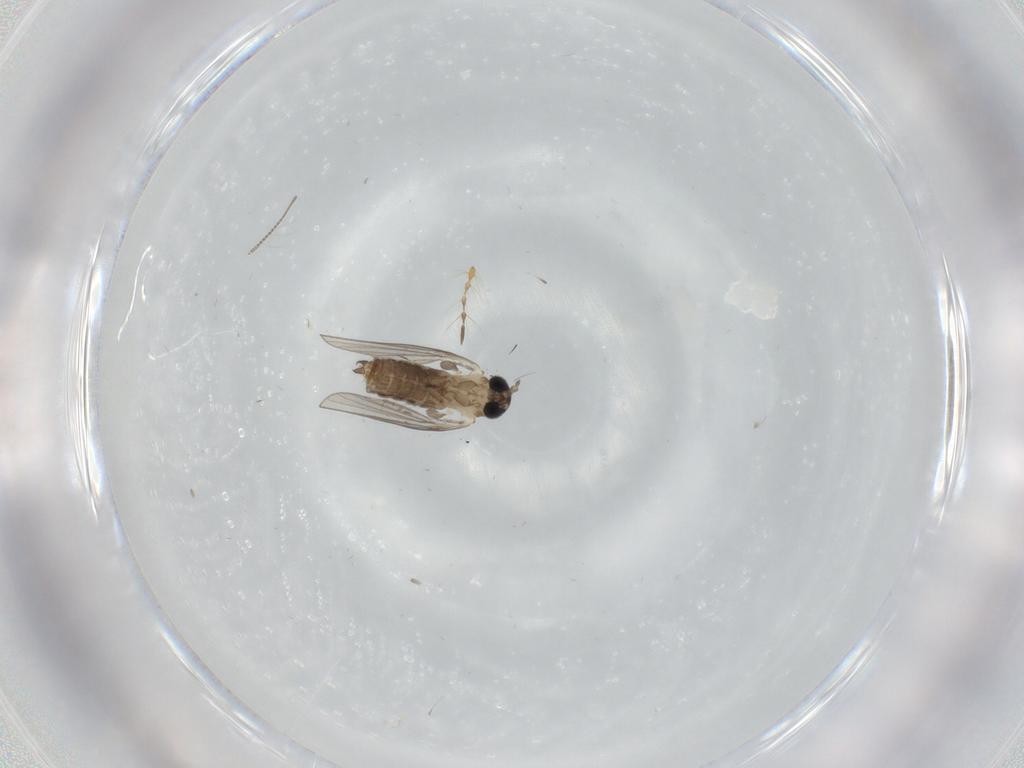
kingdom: Animalia
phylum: Arthropoda
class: Insecta
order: Diptera
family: Psychodidae
